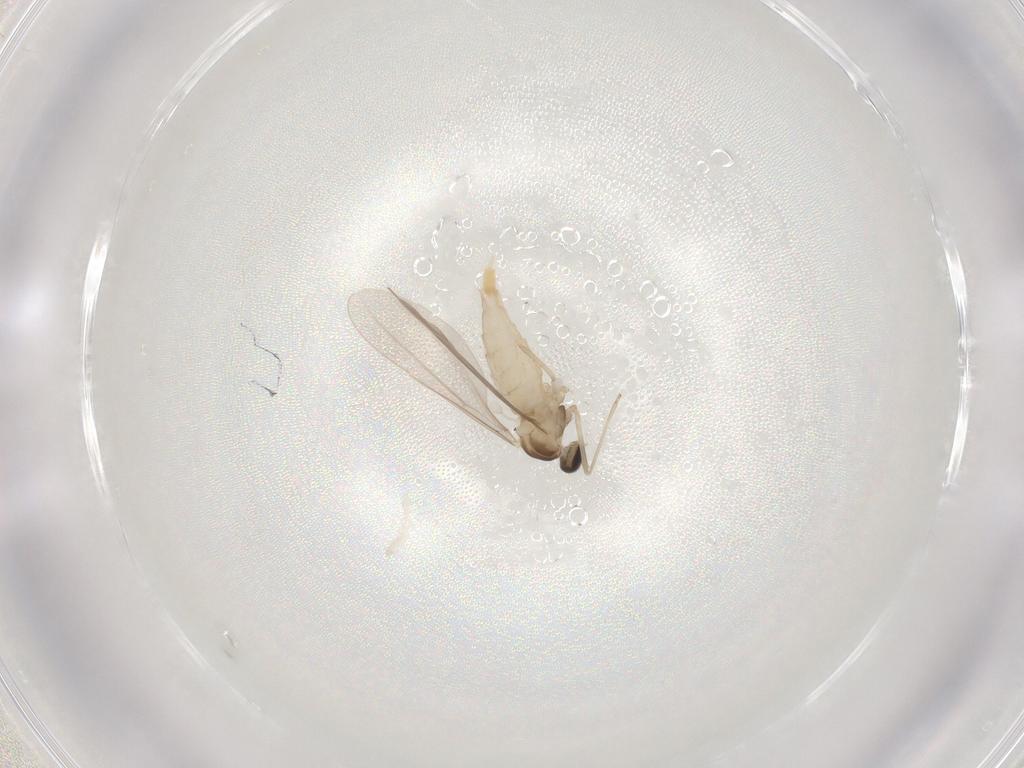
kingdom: Animalia
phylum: Arthropoda
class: Insecta
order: Diptera
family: Cecidomyiidae
